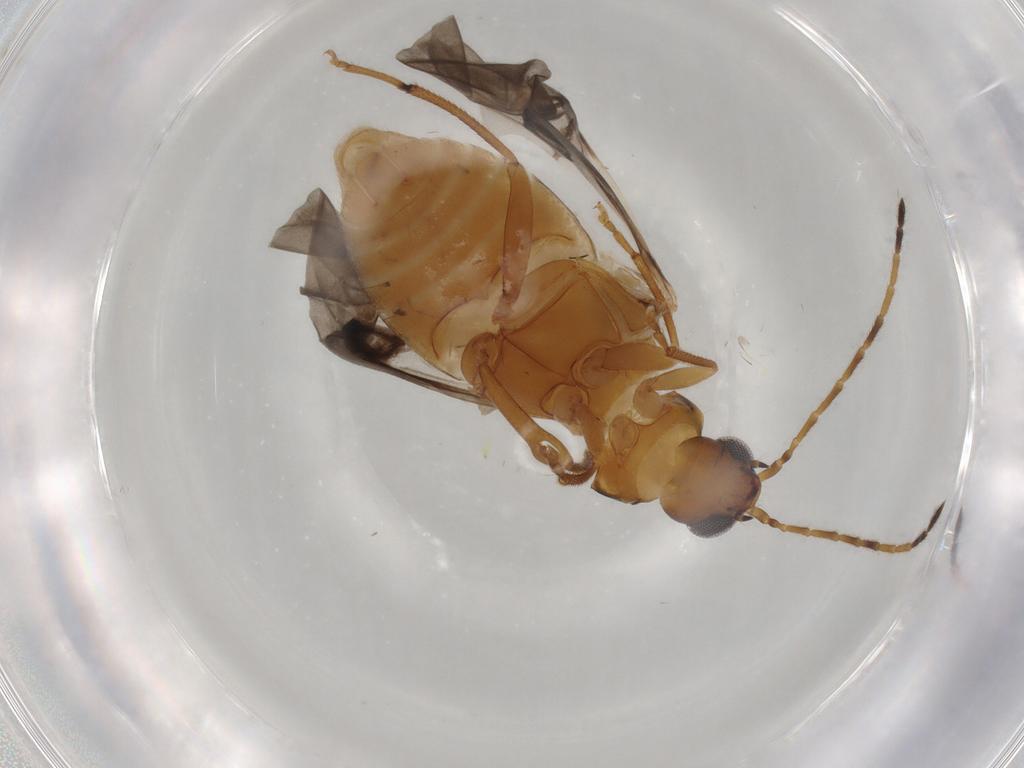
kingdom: Animalia
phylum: Arthropoda
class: Insecta
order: Coleoptera
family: Chrysomelidae
